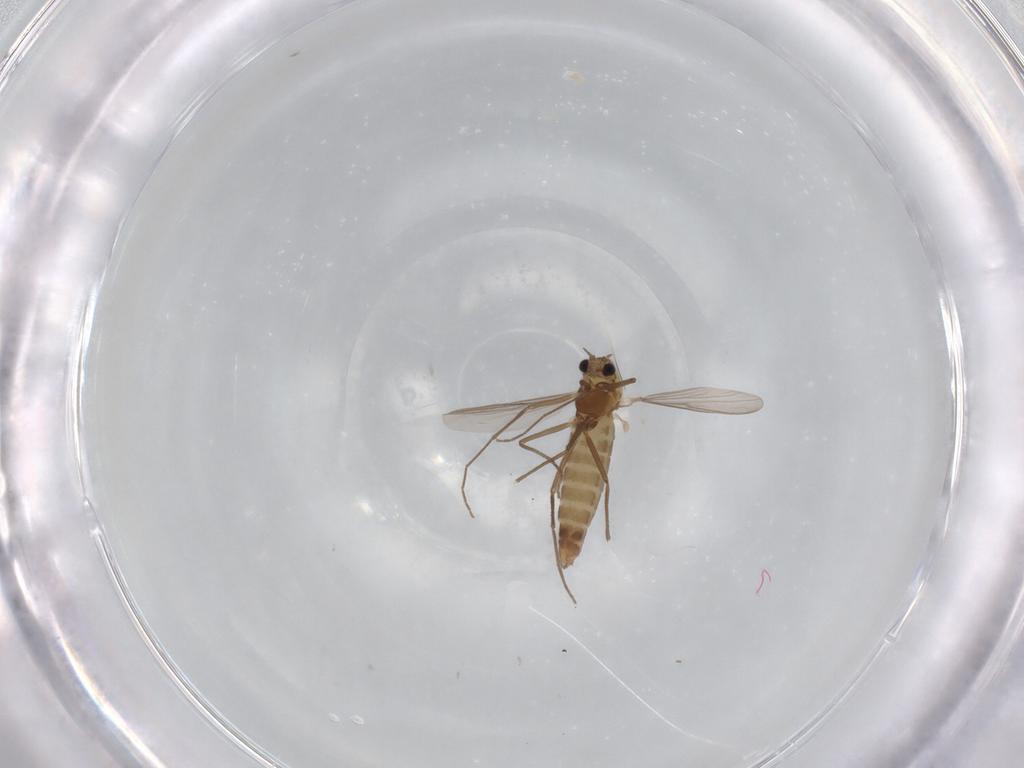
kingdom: Animalia
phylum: Arthropoda
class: Insecta
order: Diptera
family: Chironomidae
